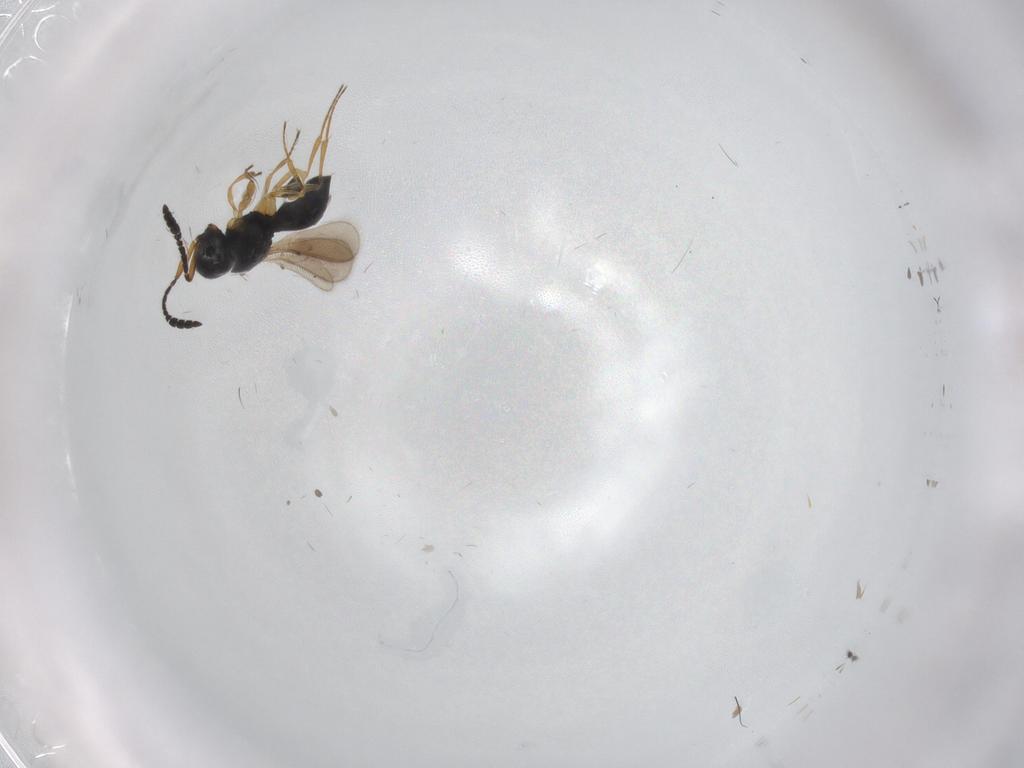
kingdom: Animalia
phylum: Arthropoda
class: Insecta
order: Hymenoptera
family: Scelionidae
